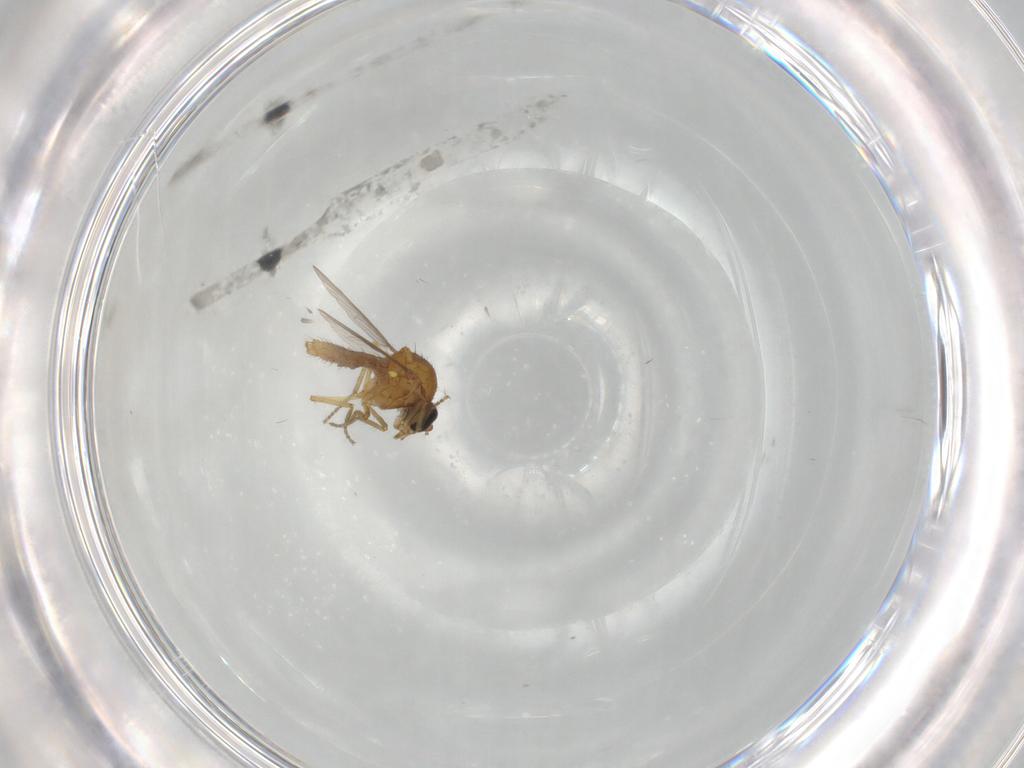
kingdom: Animalia
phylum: Arthropoda
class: Insecta
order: Diptera
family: Ceratopogonidae
